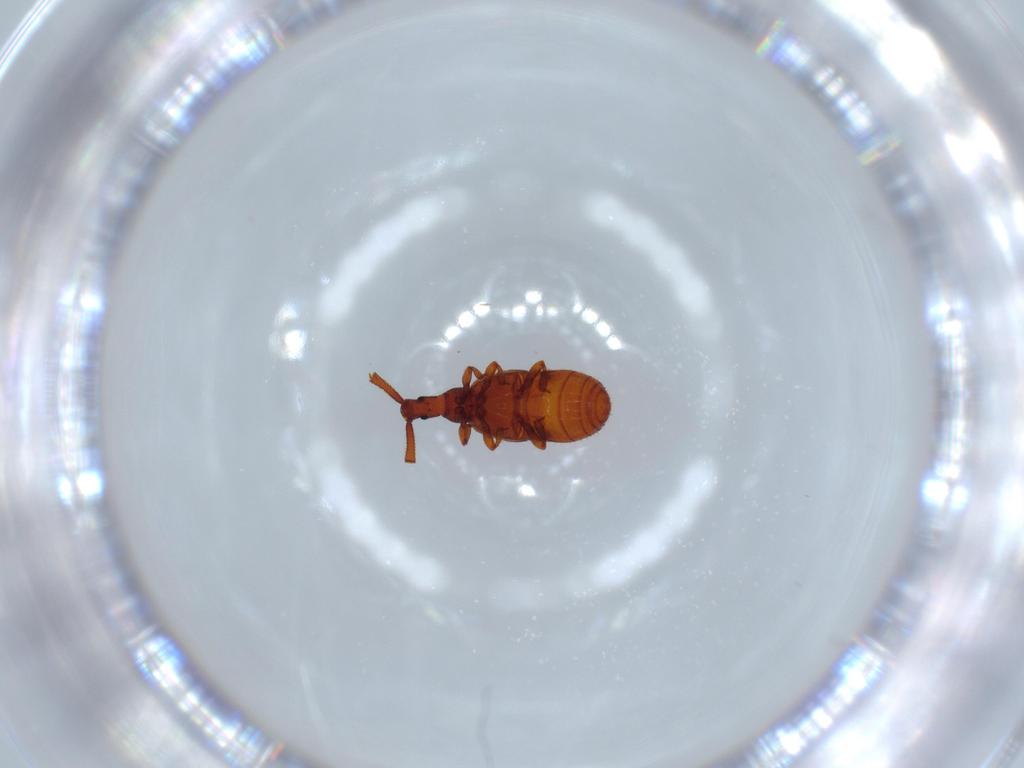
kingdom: Animalia
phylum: Arthropoda
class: Insecta
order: Coleoptera
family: Staphylinidae
